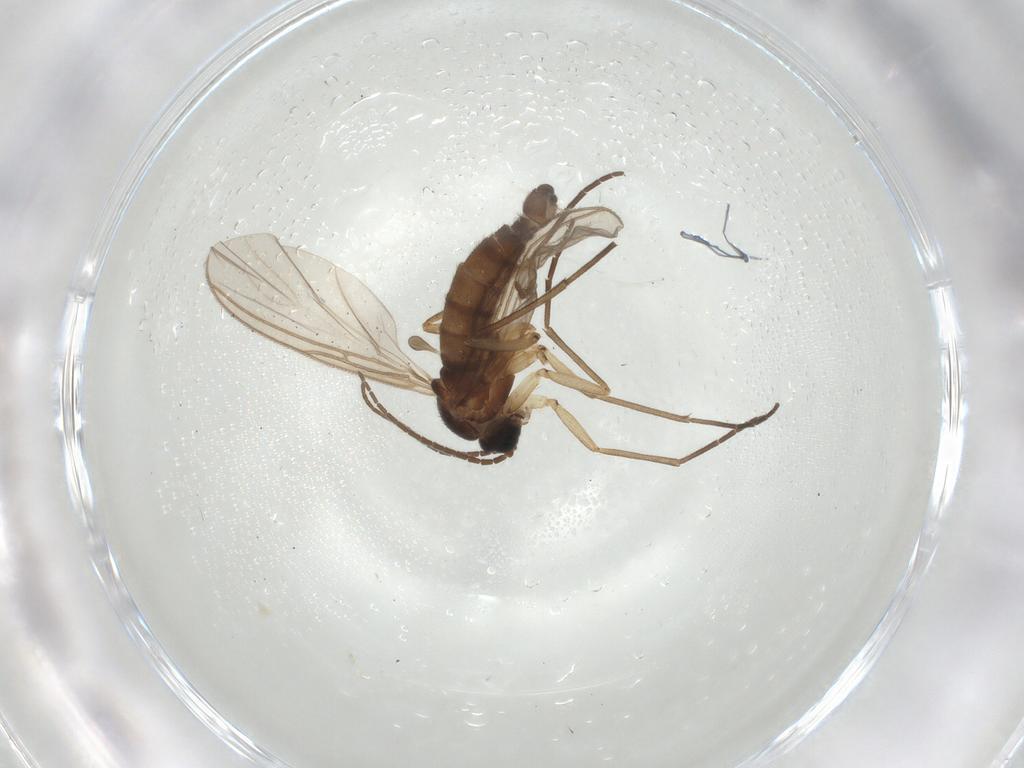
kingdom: Animalia
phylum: Arthropoda
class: Insecta
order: Diptera
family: Sciaridae
